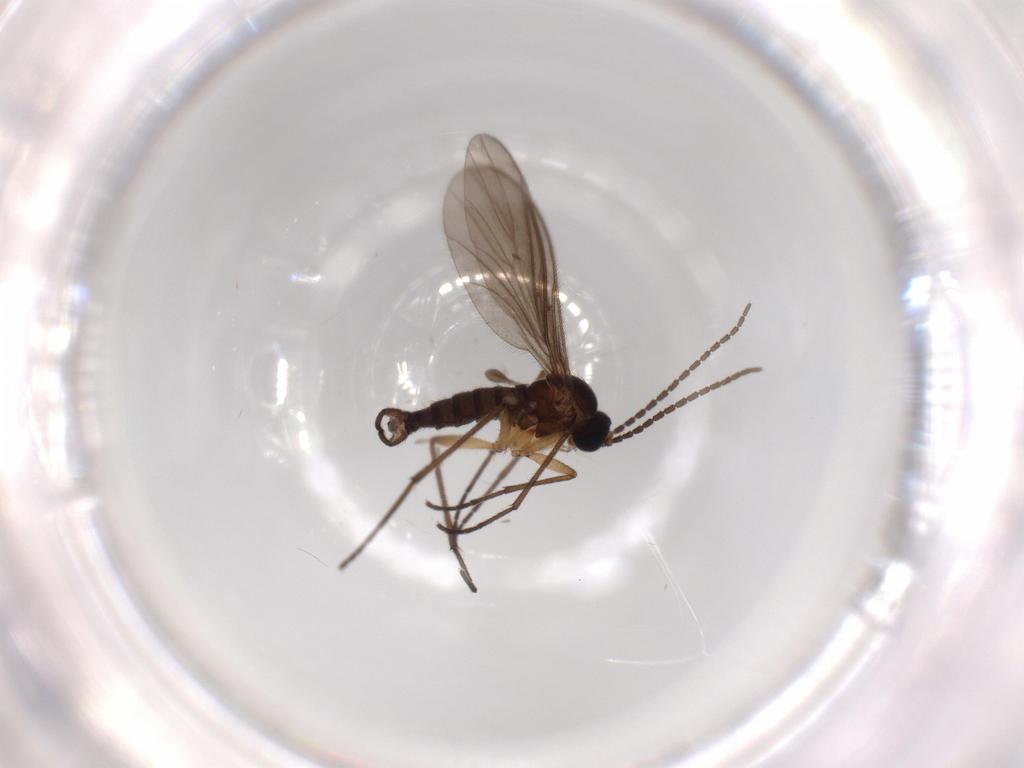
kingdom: Animalia
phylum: Arthropoda
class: Insecta
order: Diptera
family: Sciaridae
